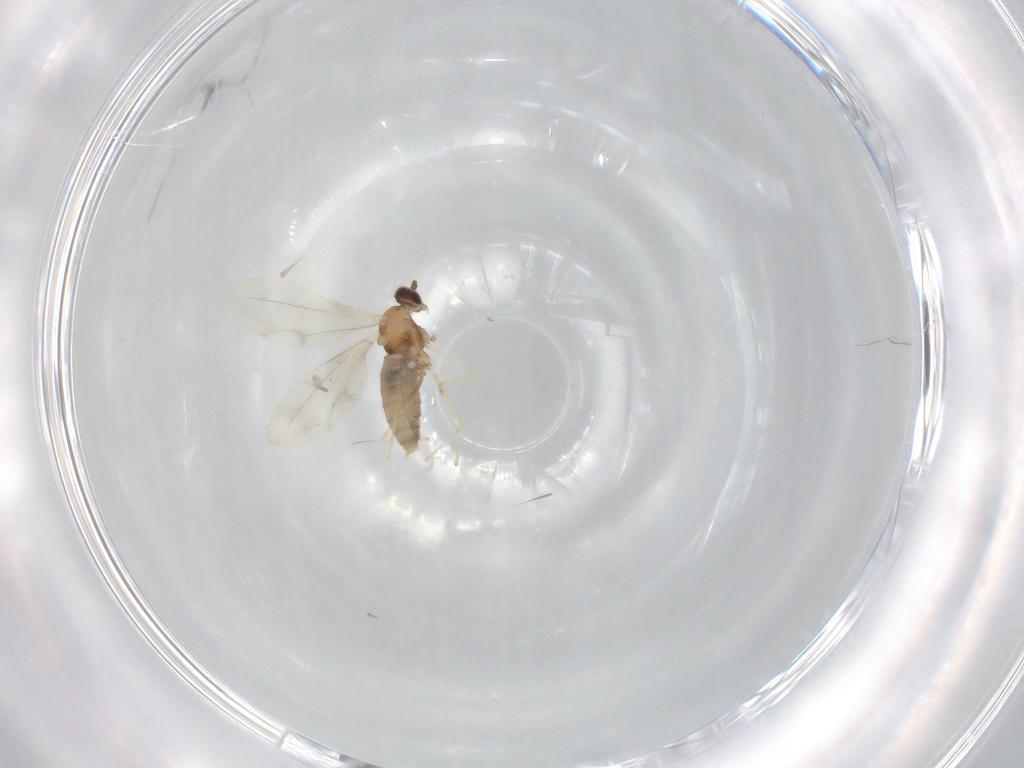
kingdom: Animalia
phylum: Arthropoda
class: Insecta
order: Diptera
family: Cecidomyiidae
